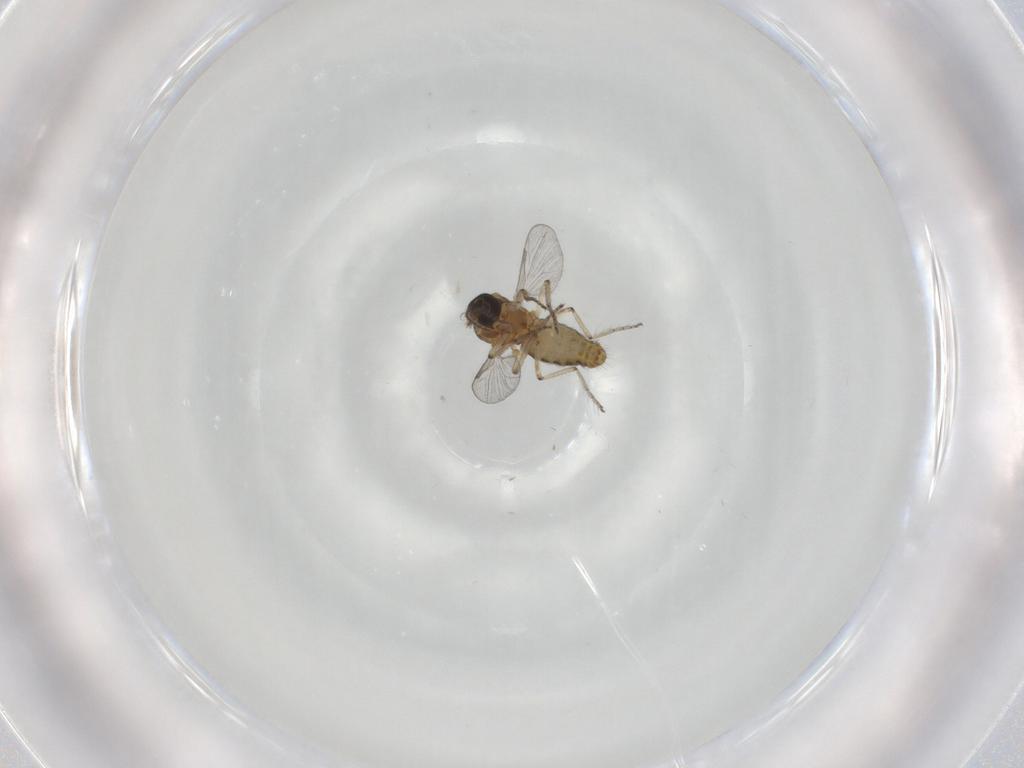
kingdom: Animalia
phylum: Arthropoda
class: Insecta
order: Diptera
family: Ceratopogonidae
